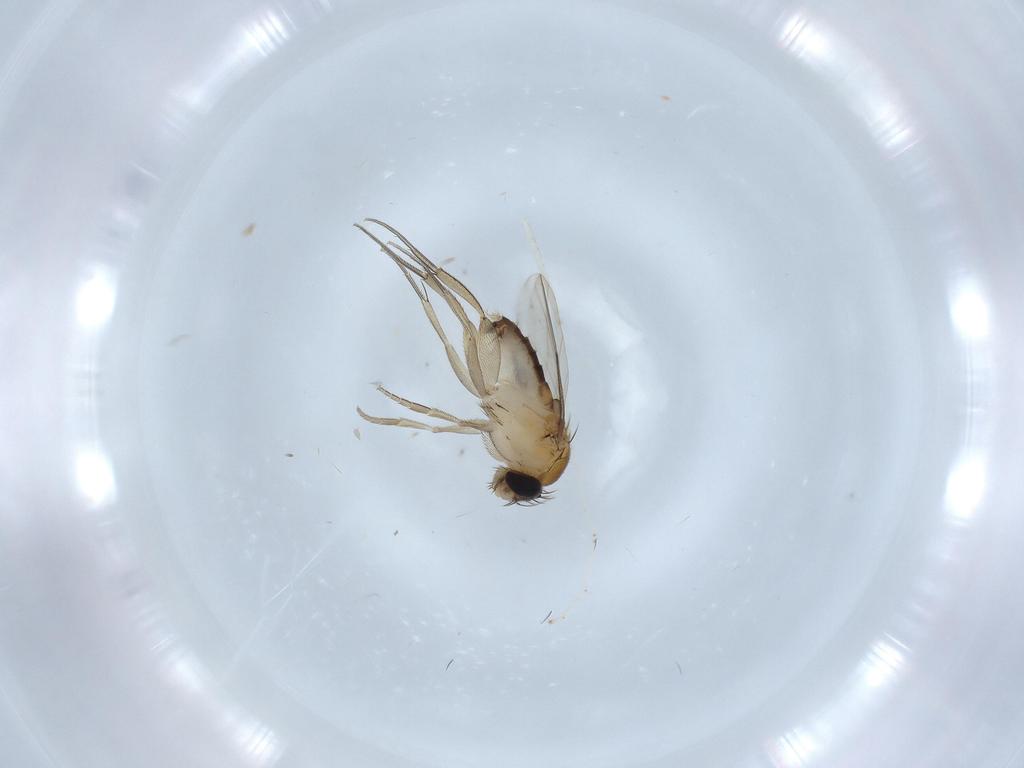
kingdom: Animalia
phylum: Arthropoda
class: Insecta
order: Diptera
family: Phoridae
